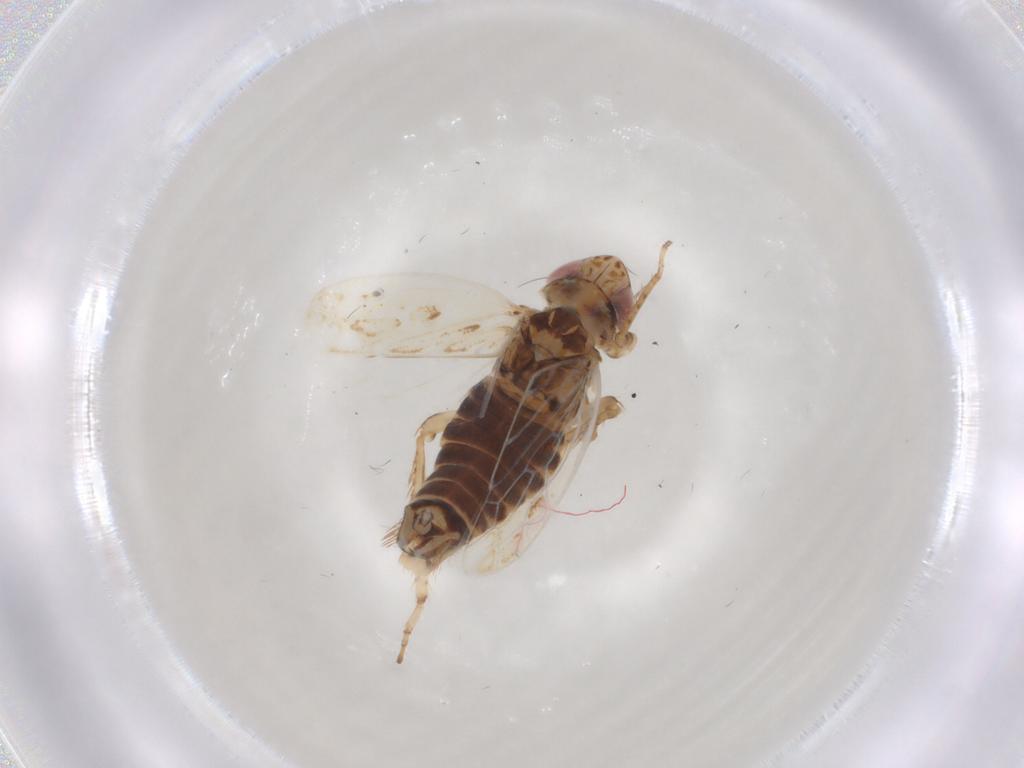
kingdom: Animalia
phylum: Arthropoda
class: Insecta
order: Hemiptera
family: Cicadellidae
